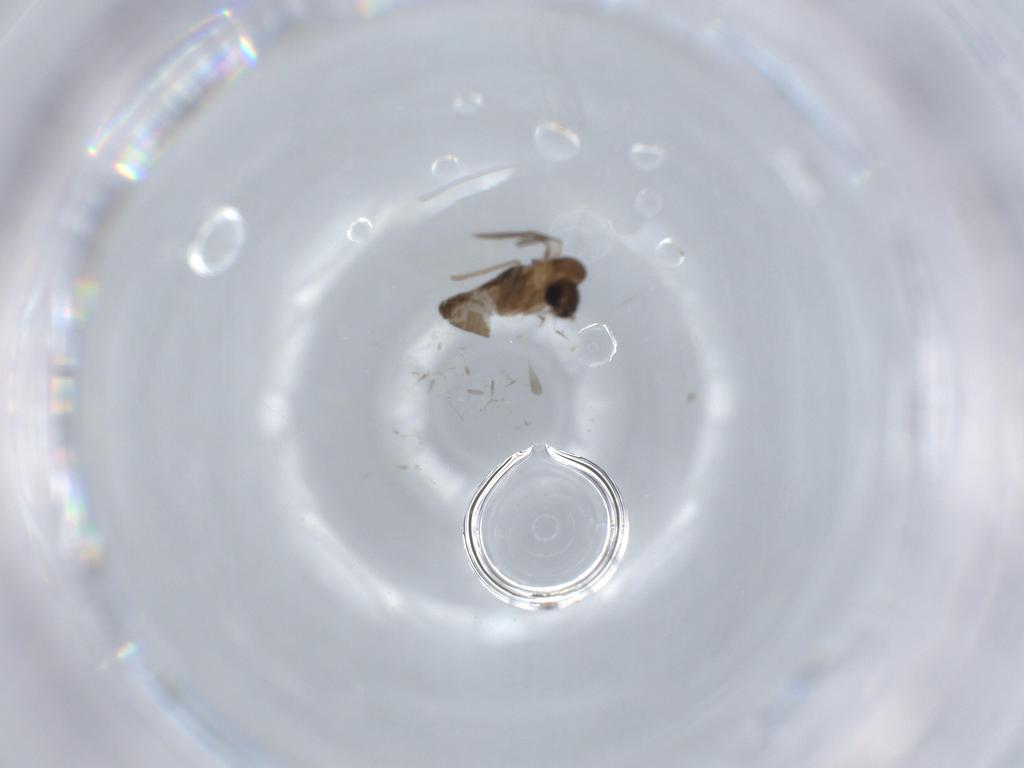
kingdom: Animalia
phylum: Arthropoda
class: Insecta
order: Diptera
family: Psychodidae
